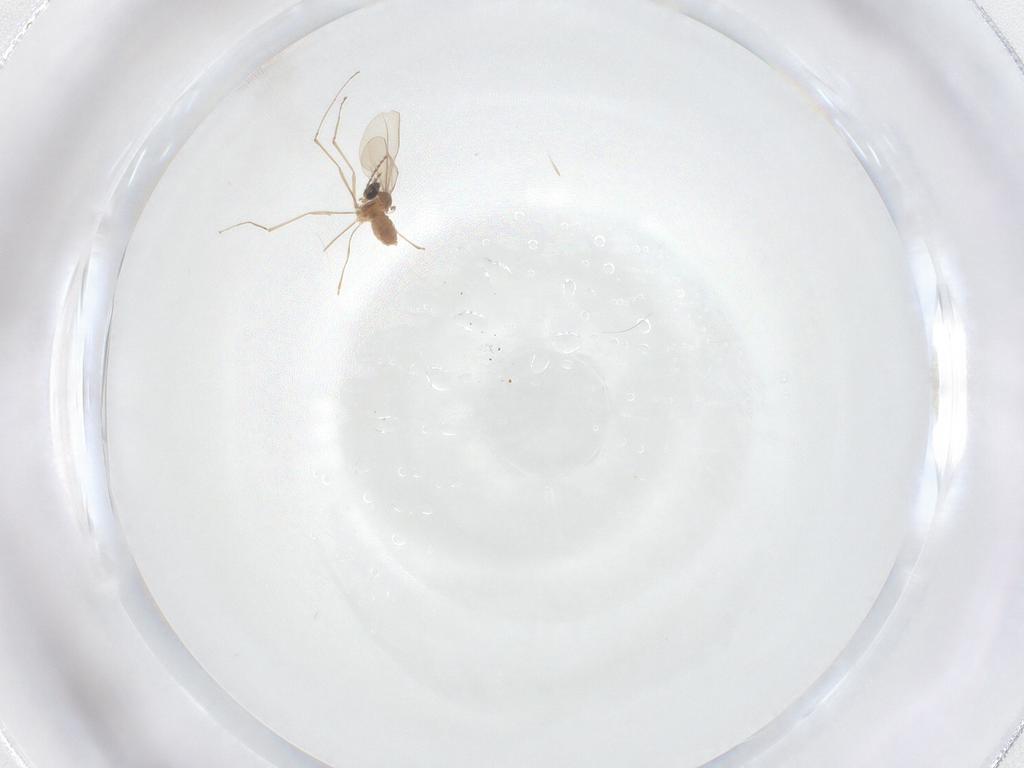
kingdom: Animalia
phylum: Arthropoda
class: Insecta
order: Diptera
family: Cecidomyiidae
